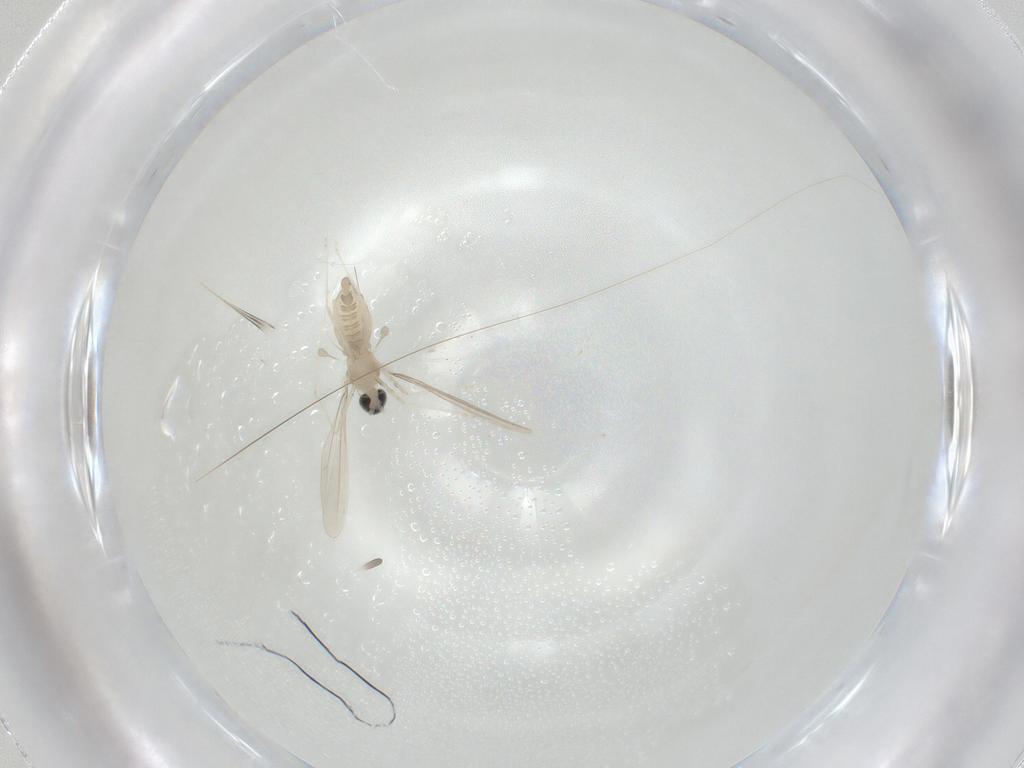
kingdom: Animalia
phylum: Arthropoda
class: Insecta
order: Diptera
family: Cecidomyiidae
